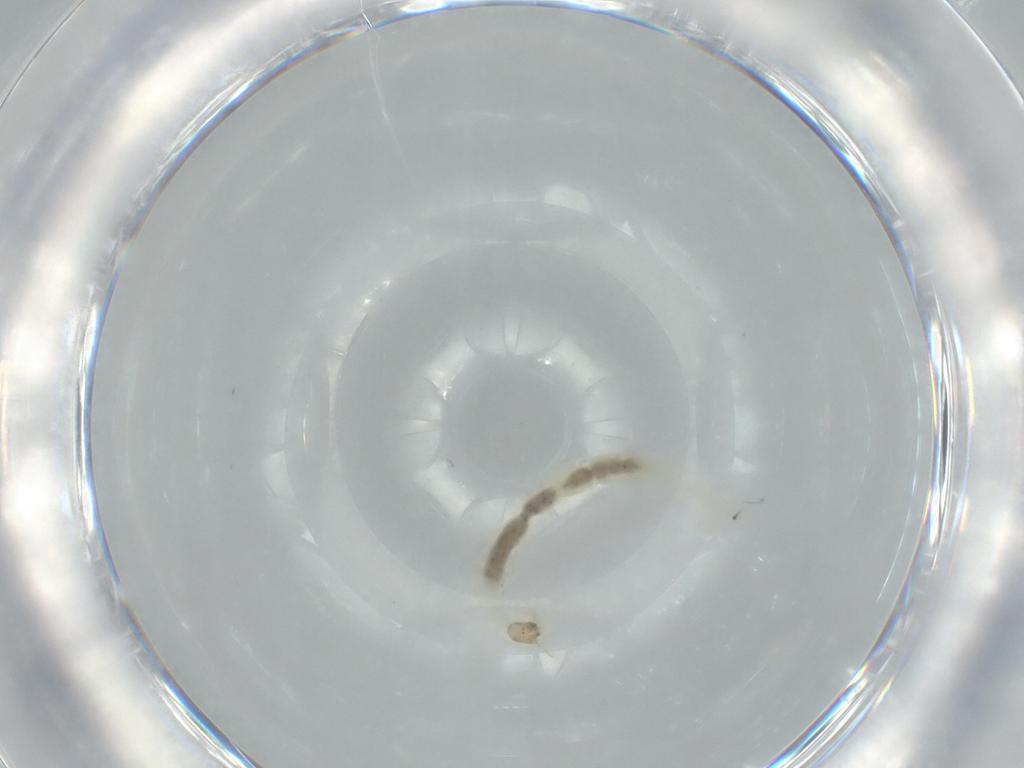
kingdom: Animalia
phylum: Arthropoda
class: Insecta
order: Diptera
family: Chironomidae
